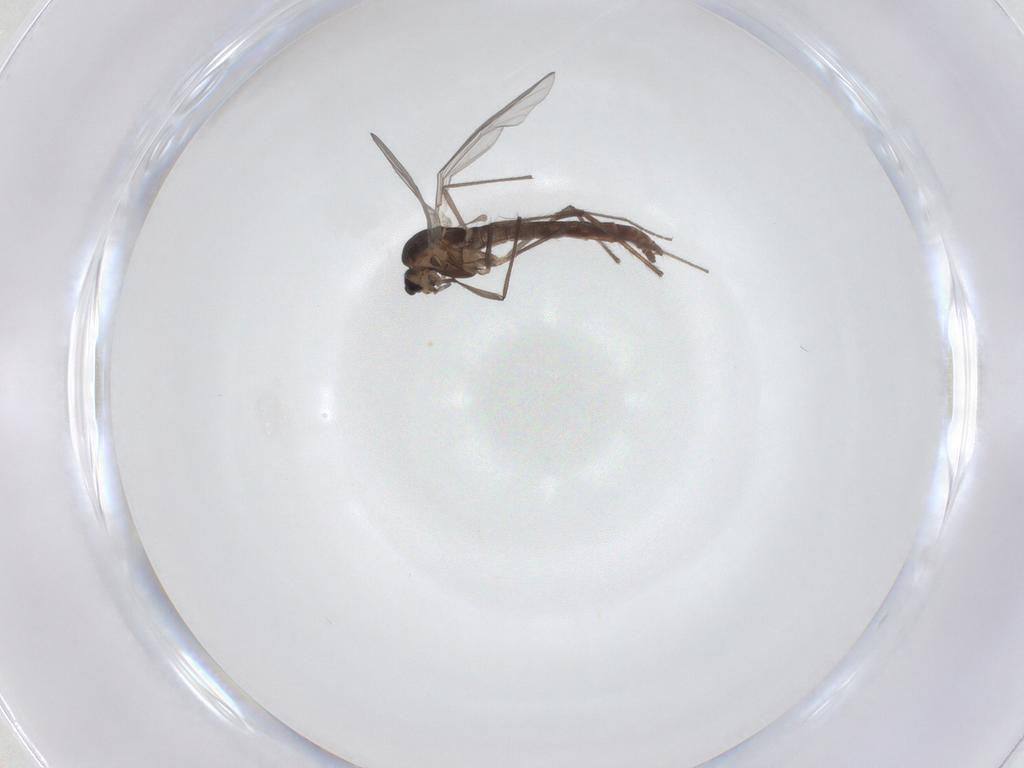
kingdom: Animalia
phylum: Arthropoda
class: Insecta
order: Diptera
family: Chironomidae
